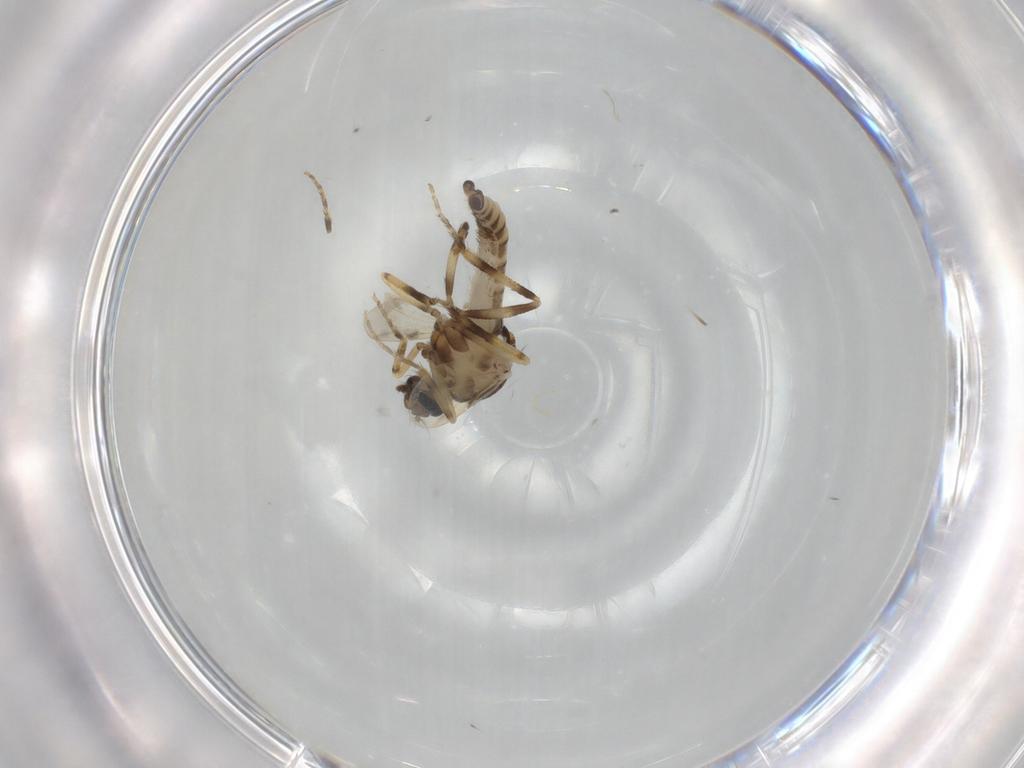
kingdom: Animalia
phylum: Arthropoda
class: Insecta
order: Diptera
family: Ceratopogonidae
